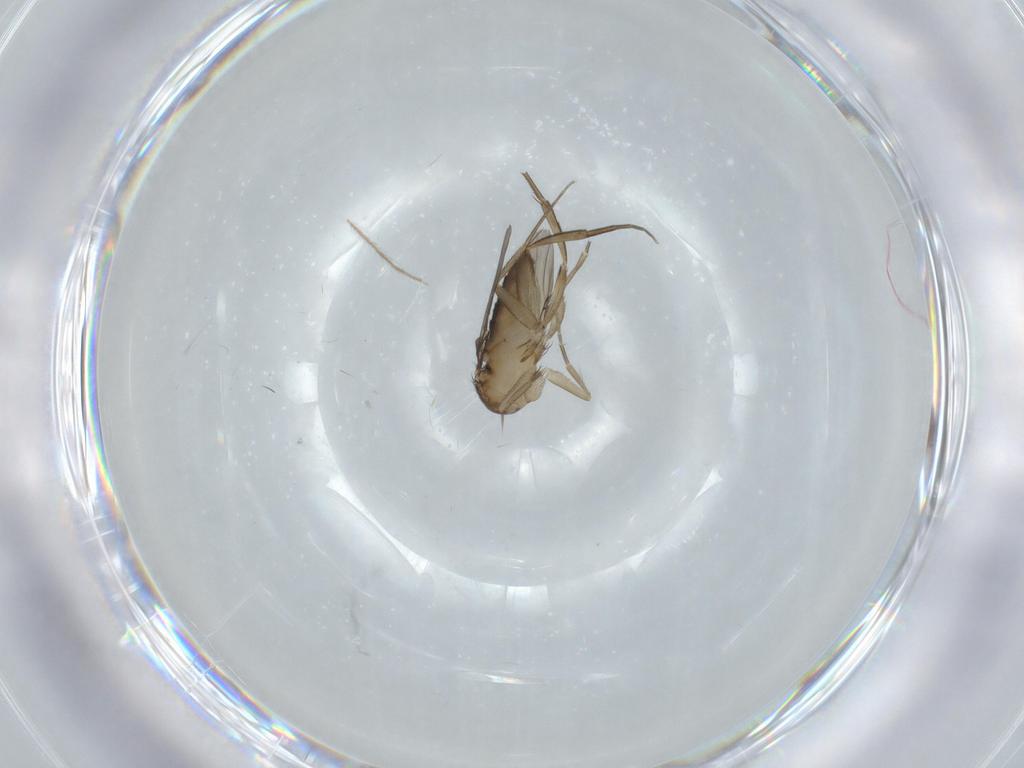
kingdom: Animalia
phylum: Arthropoda
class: Insecta
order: Diptera
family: Phoridae
